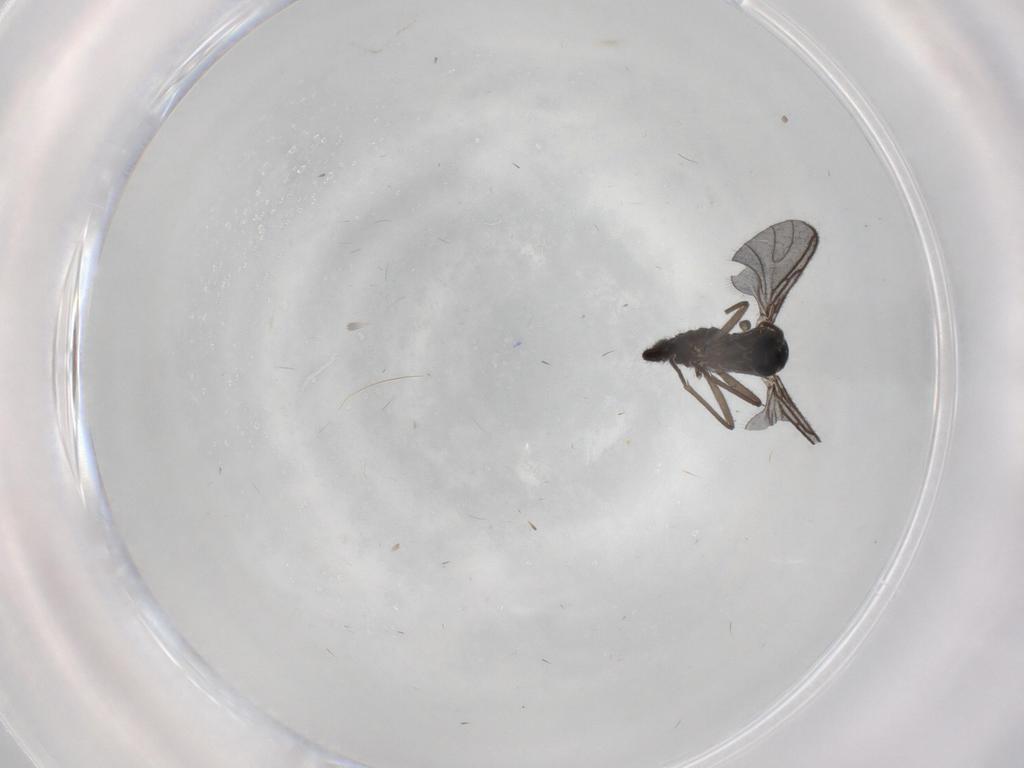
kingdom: Animalia
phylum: Arthropoda
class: Insecta
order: Diptera
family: Sciaridae
